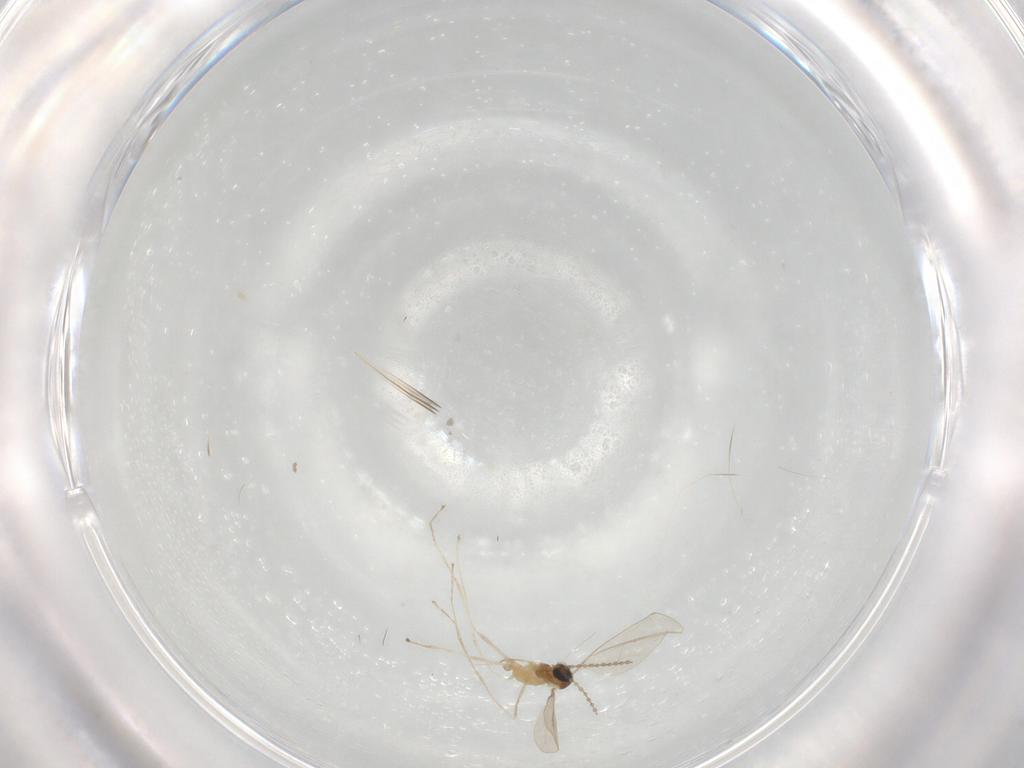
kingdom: Animalia
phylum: Arthropoda
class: Insecta
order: Diptera
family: Cecidomyiidae
